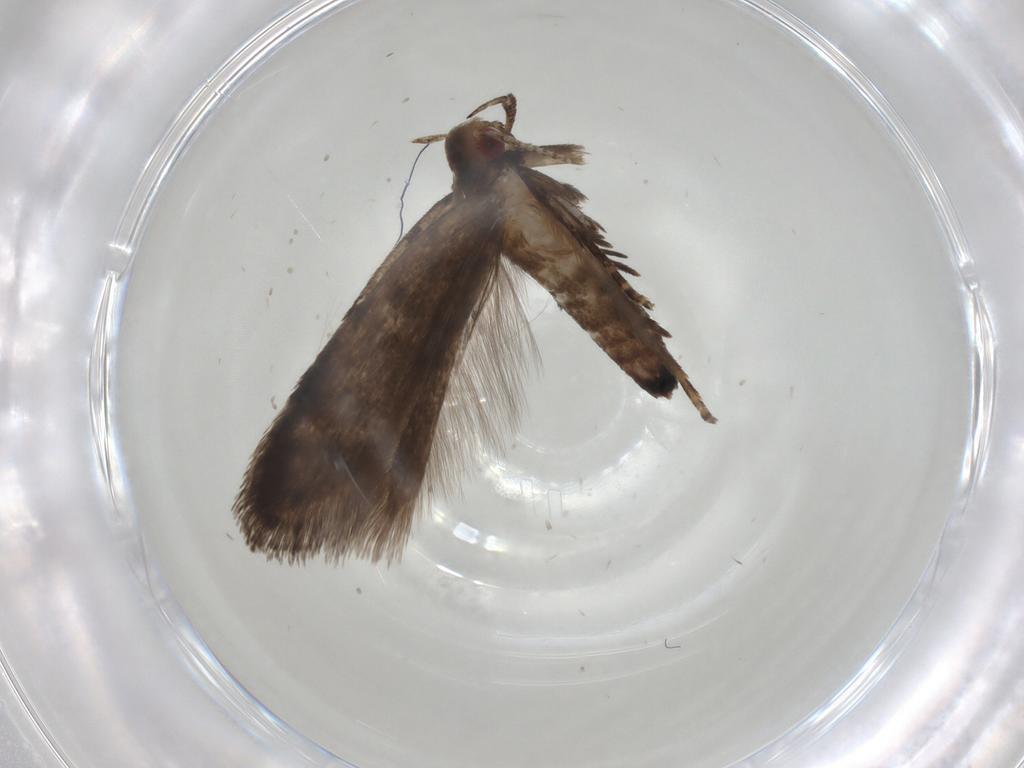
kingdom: Animalia
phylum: Arthropoda
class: Insecta
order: Lepidoptera
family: Gelechiidae
